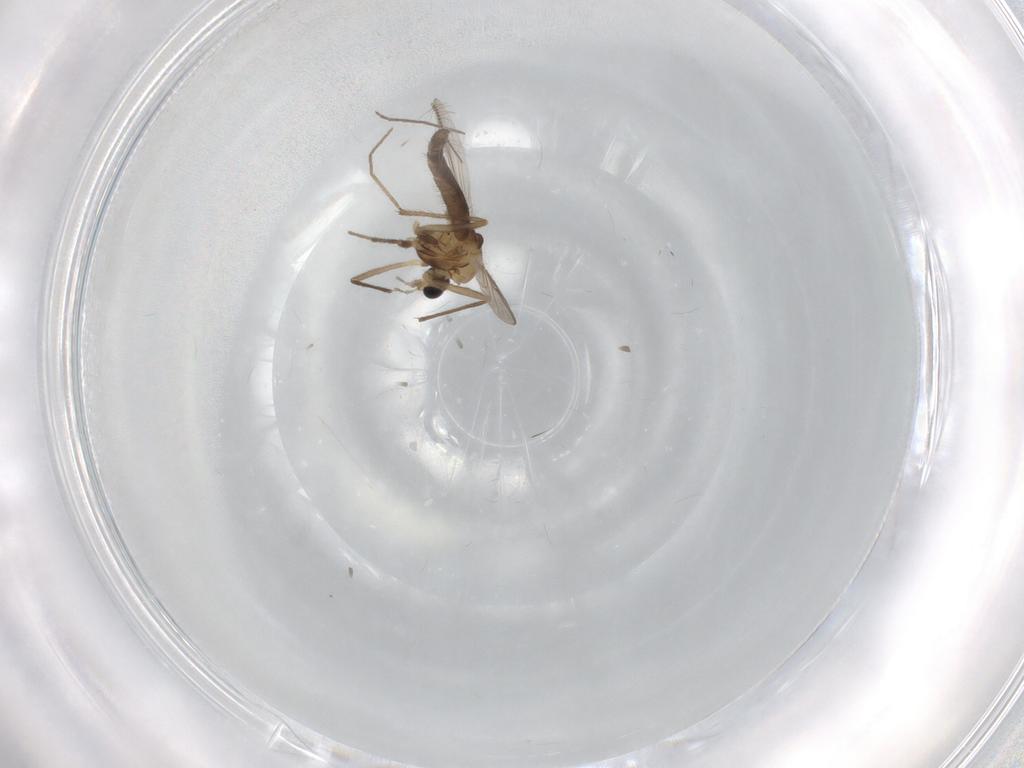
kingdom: Animalia
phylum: Arthropoda
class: Insecta
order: Diptera
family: Chironomidae
